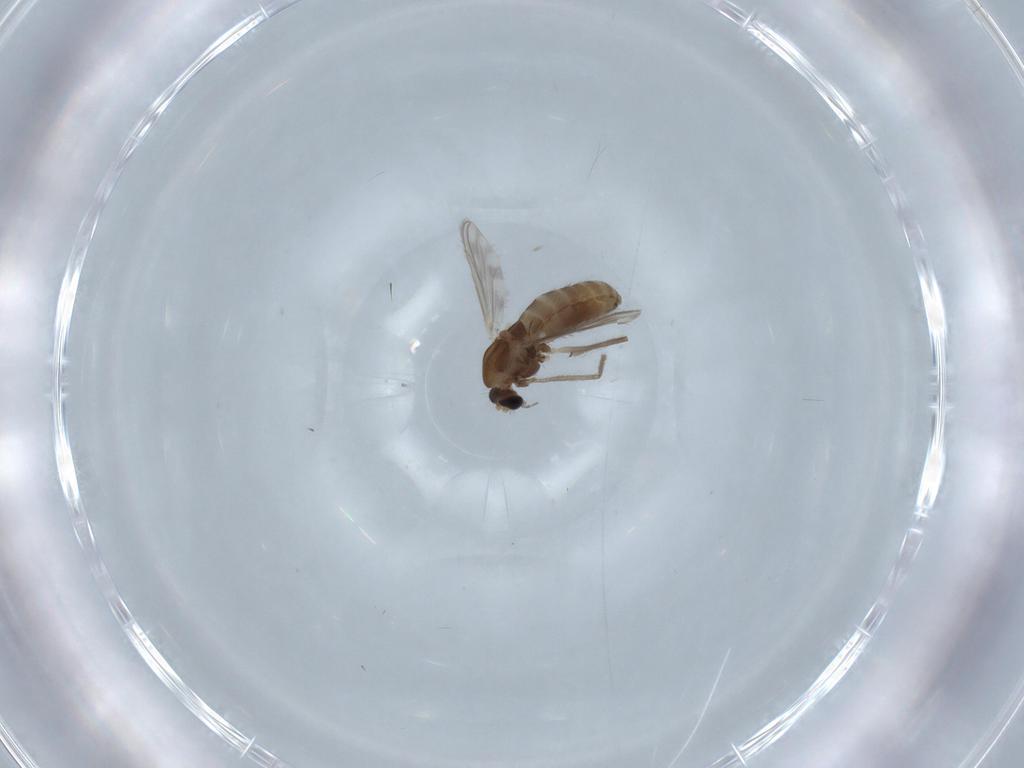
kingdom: Animalia
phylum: Arthropoda
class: Insecta
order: Diptera
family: Chironomidae
